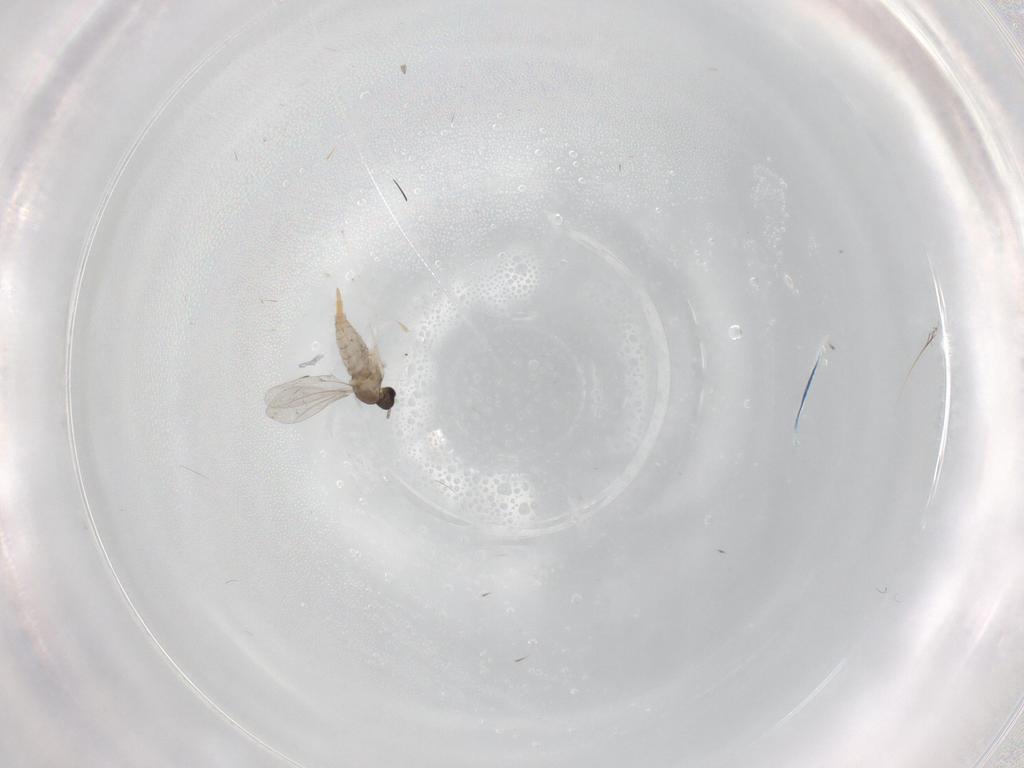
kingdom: Animalia
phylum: Arthropoda
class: Insecta
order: Diptera
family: Cecidomyiidae
